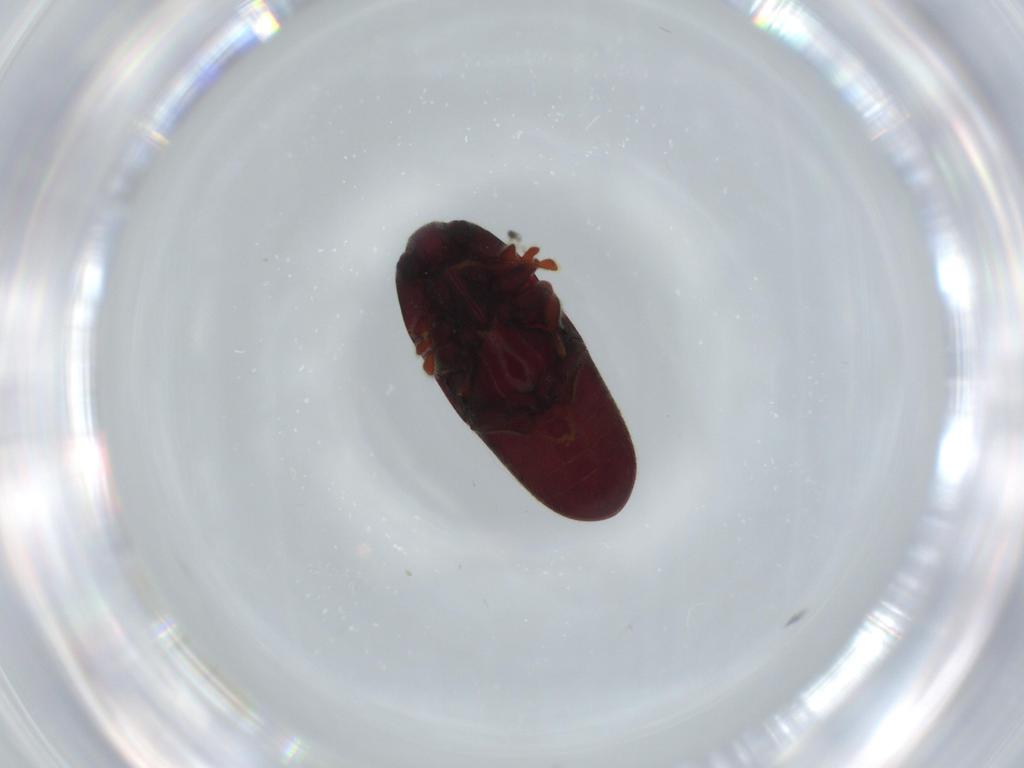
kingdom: Animalia
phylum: Arthropoda
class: Insecta
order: Coleoptera
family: Throscidae
